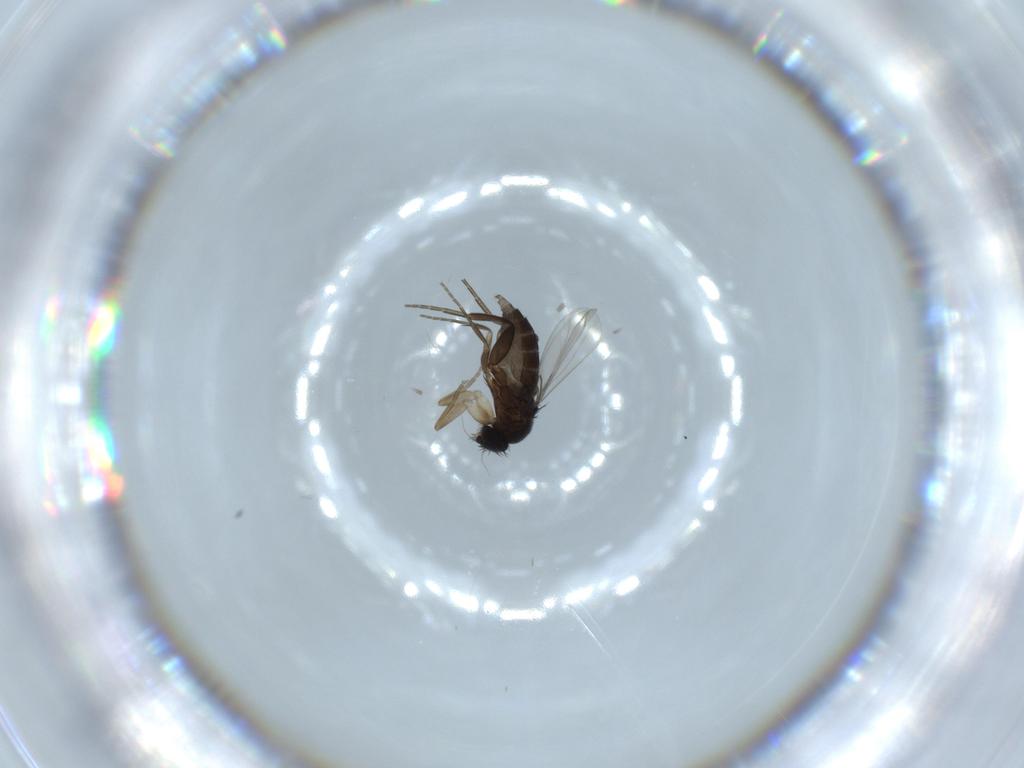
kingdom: Animalia
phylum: Arthropoda
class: Insecta
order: Diptera
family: Phoridae
